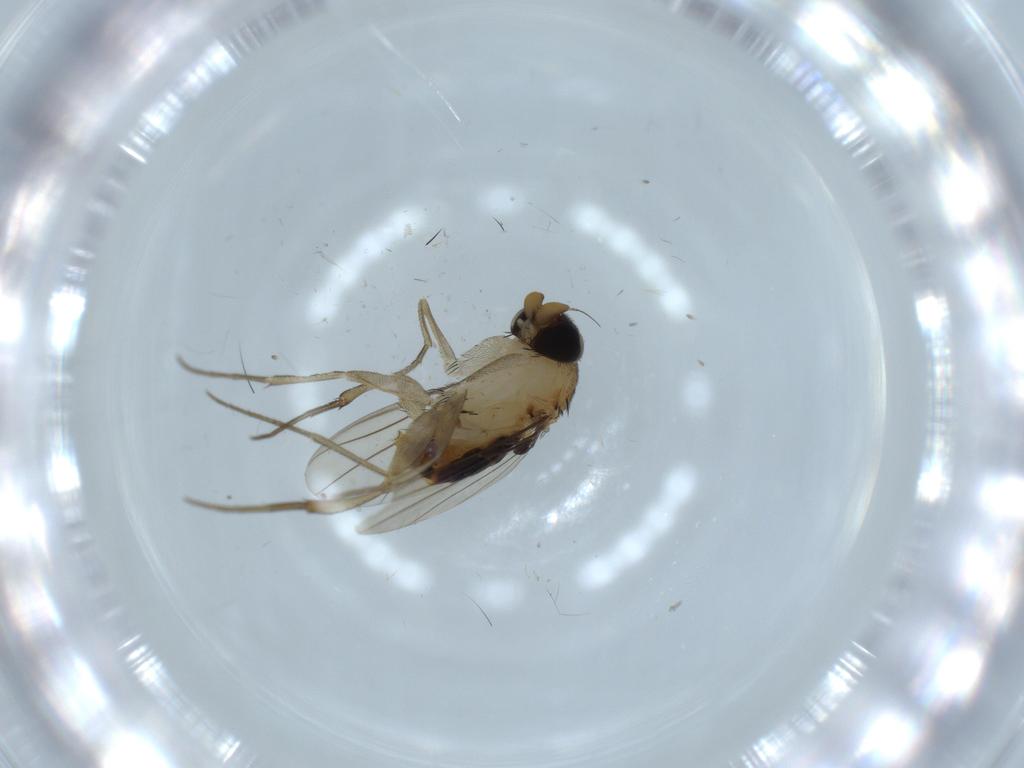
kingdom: Animalia
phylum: Arthropoda
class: Insecta
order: Diptera
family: Phoridae
